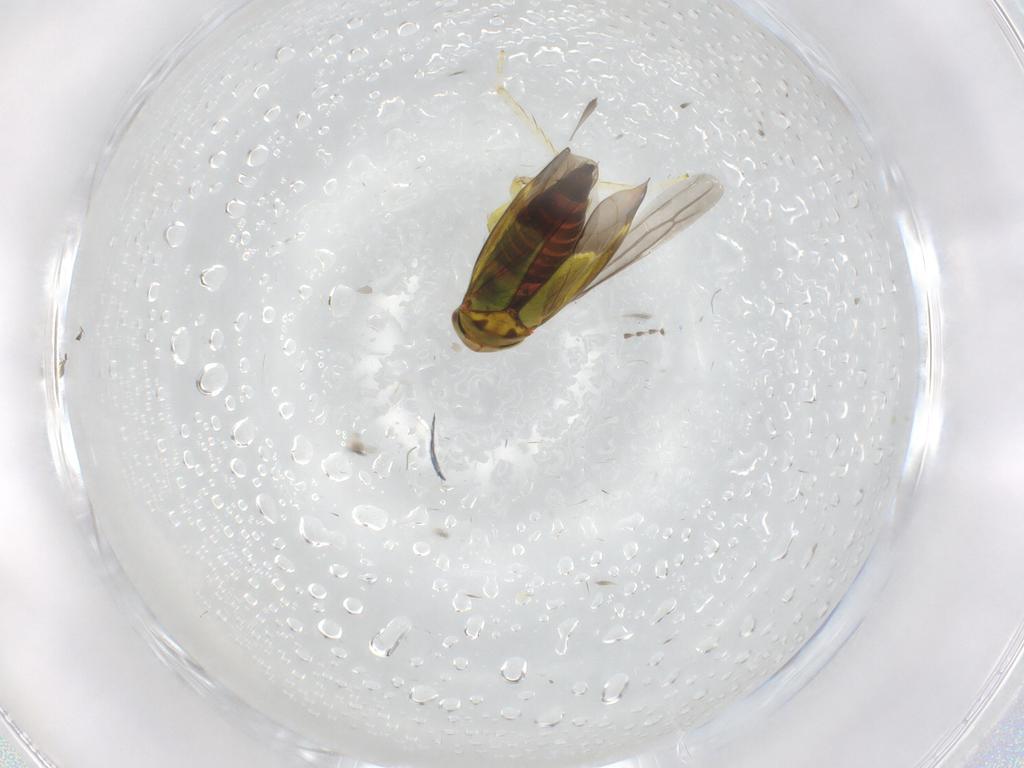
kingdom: Animalia
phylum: Arthropoda
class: Insecta
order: Hemiptera
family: Cicadellidae
